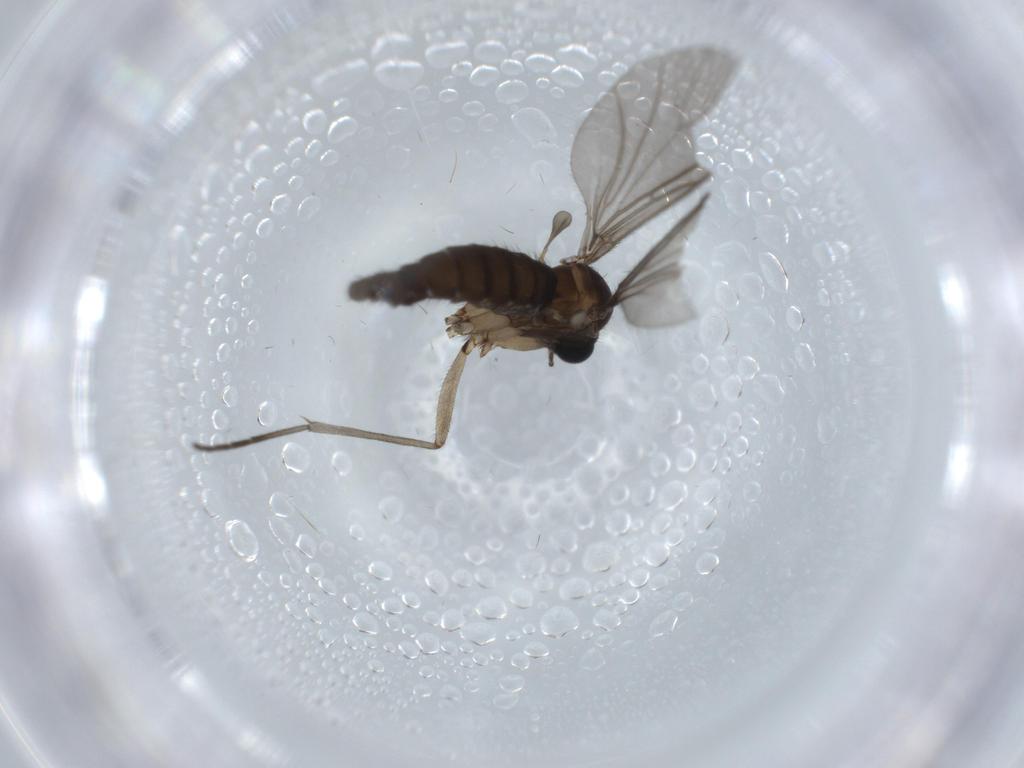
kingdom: Animalia
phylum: Arthropoda
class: Insecta
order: Diptera
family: Sciaridae
